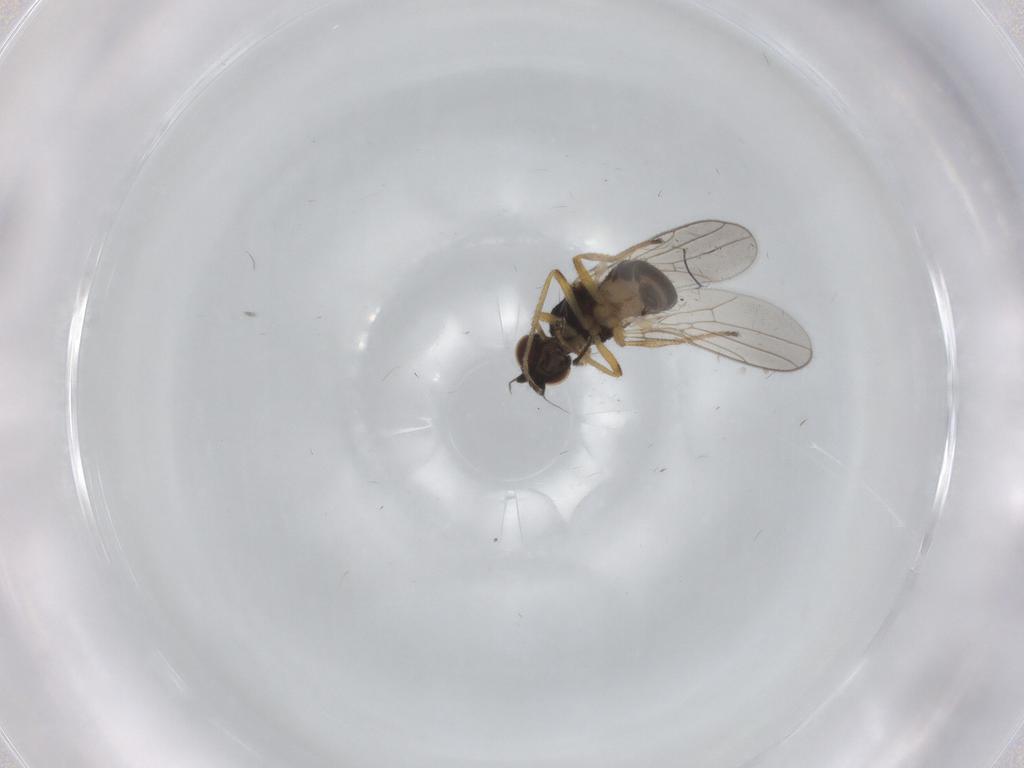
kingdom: Animalia
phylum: Arthropoda
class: Insecta
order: Diptera
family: Chloropidae
